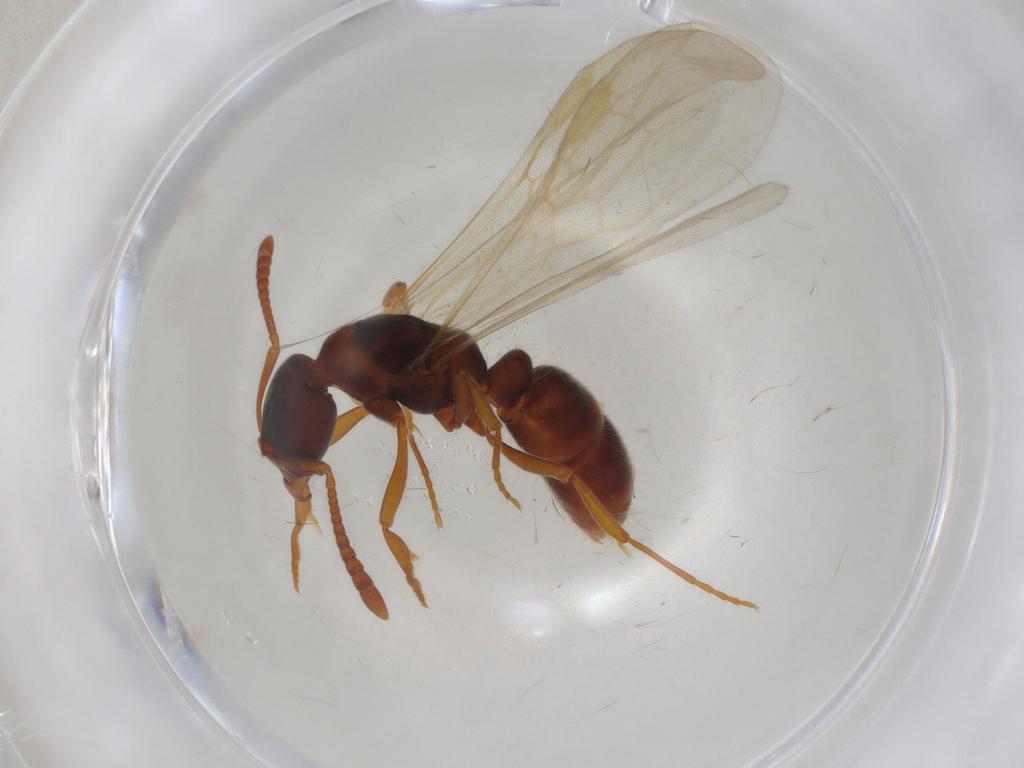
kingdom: Animalia
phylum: Arthropoda
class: Insecta
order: Hymenoptera
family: Formicidae
